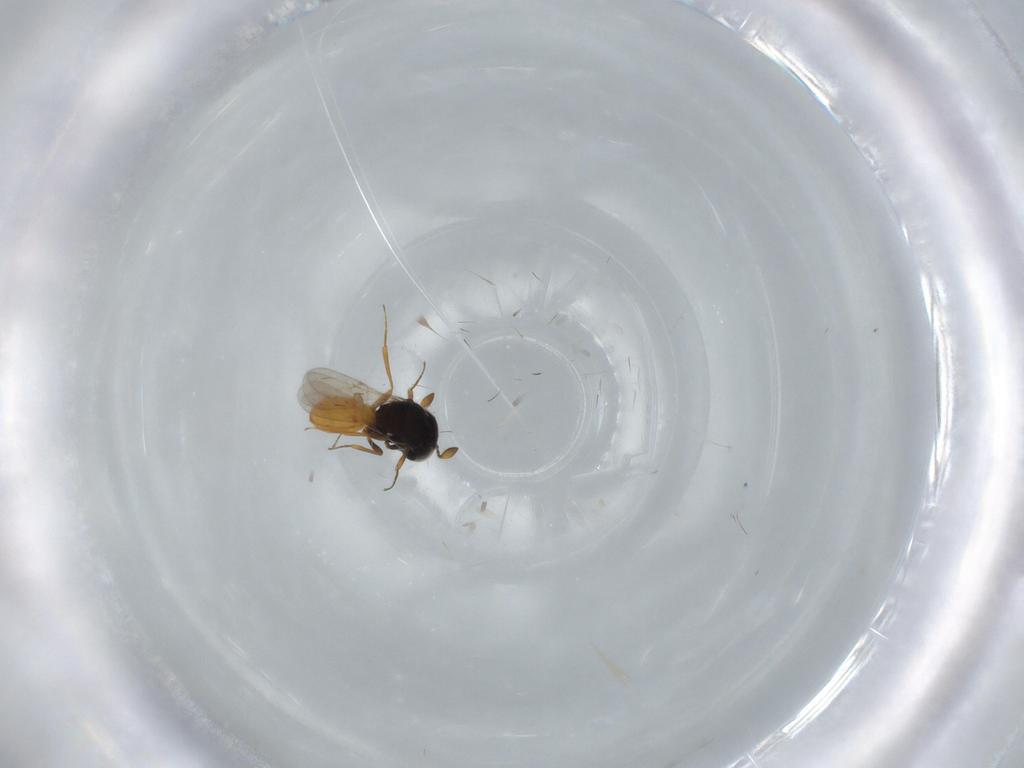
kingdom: Animalia
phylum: Arthropoda
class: Insecta
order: Hymenoptera
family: Scelionidae
